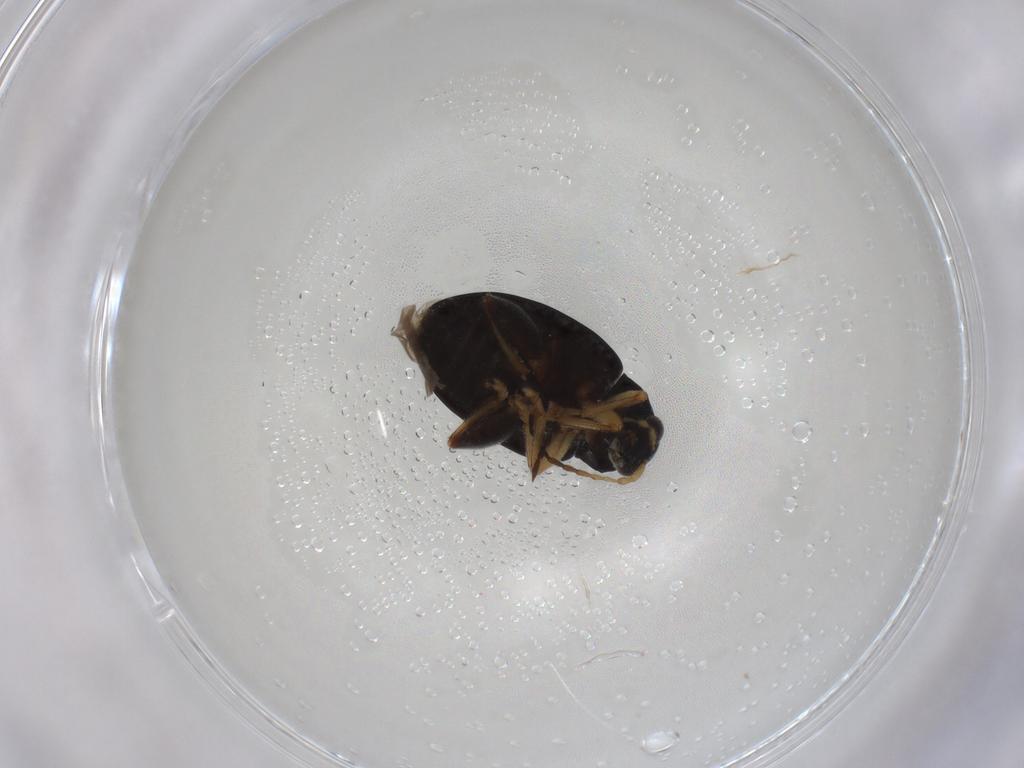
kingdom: Animalia
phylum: Arthropoda
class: Insecta
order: Coleoptera
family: Chrysomelidae
